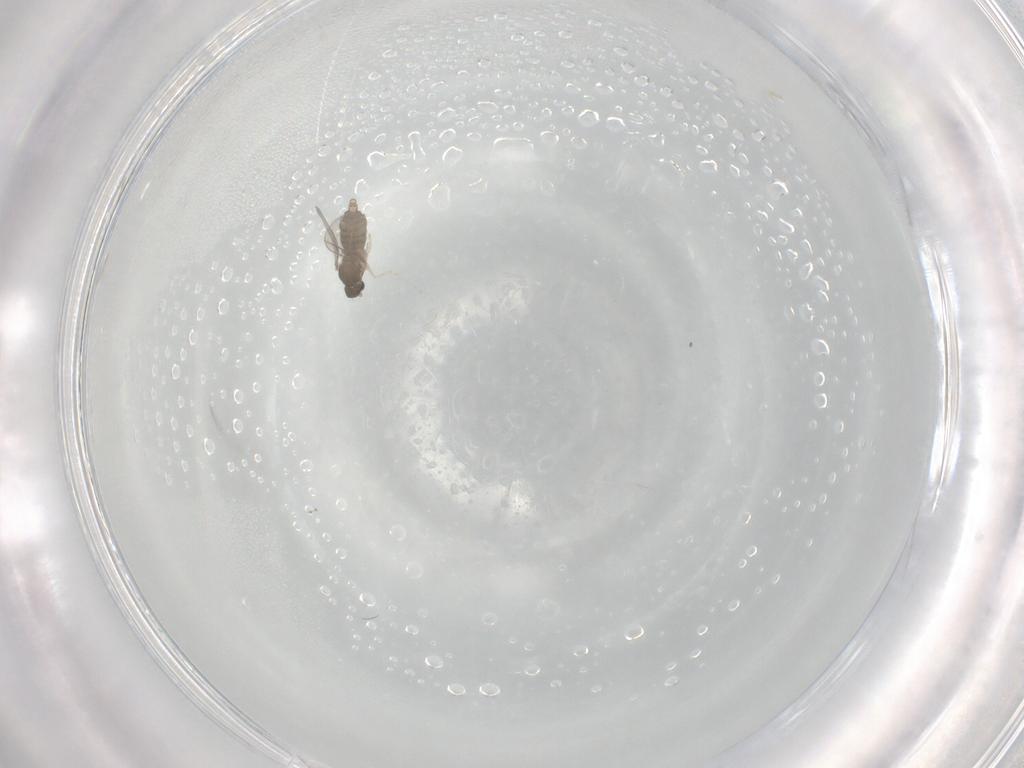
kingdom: Animalia
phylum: Arthropoda
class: Insecta
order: Diptera
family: Cecidomyiidae
